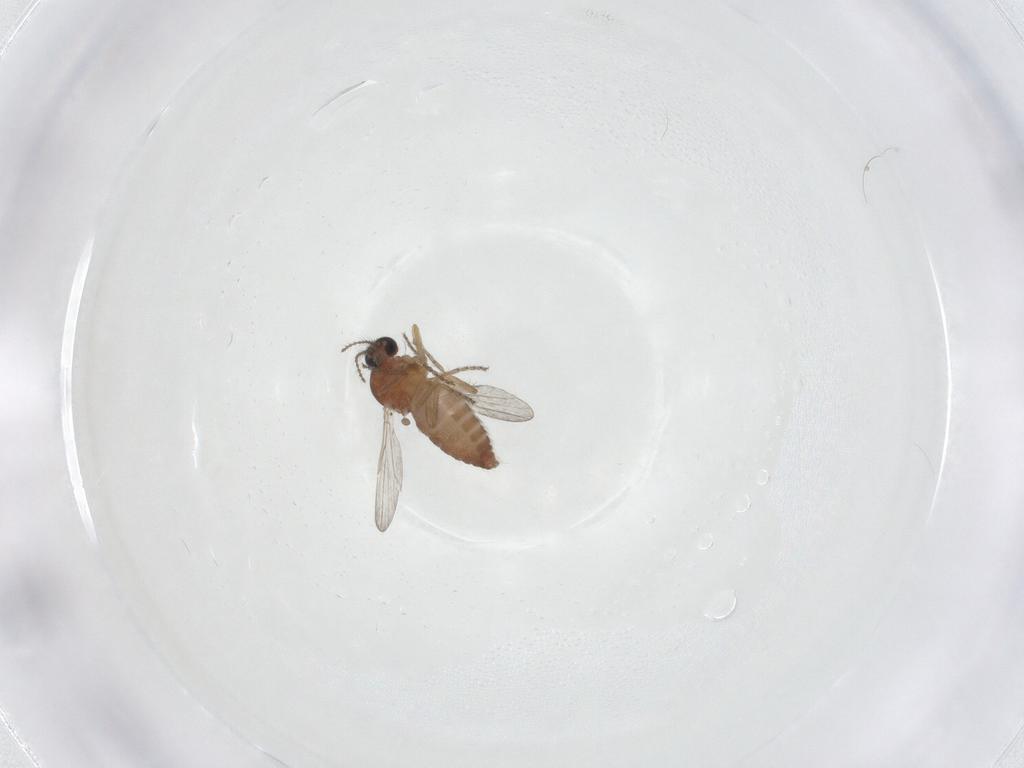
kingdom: Animalia
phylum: Arthropoda
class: Insecta
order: Diptera
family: Ceratopogonidae
